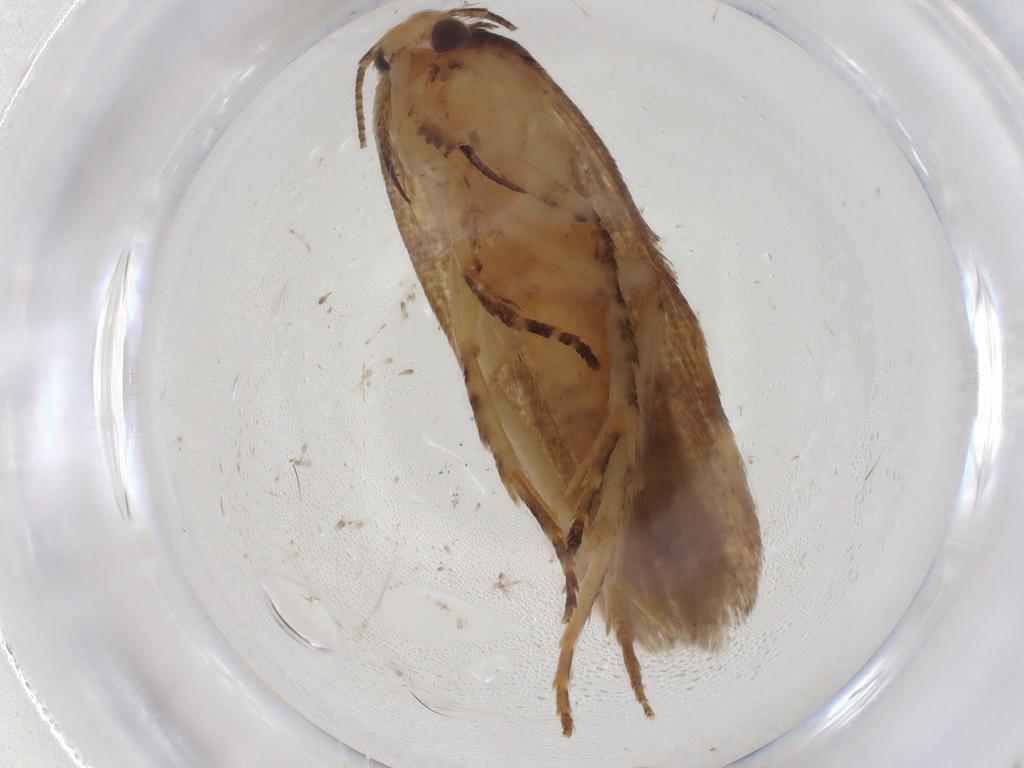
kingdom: Animalia
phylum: Arthropoda
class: Insecta
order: Lepidoptera
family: Gelechiidae
